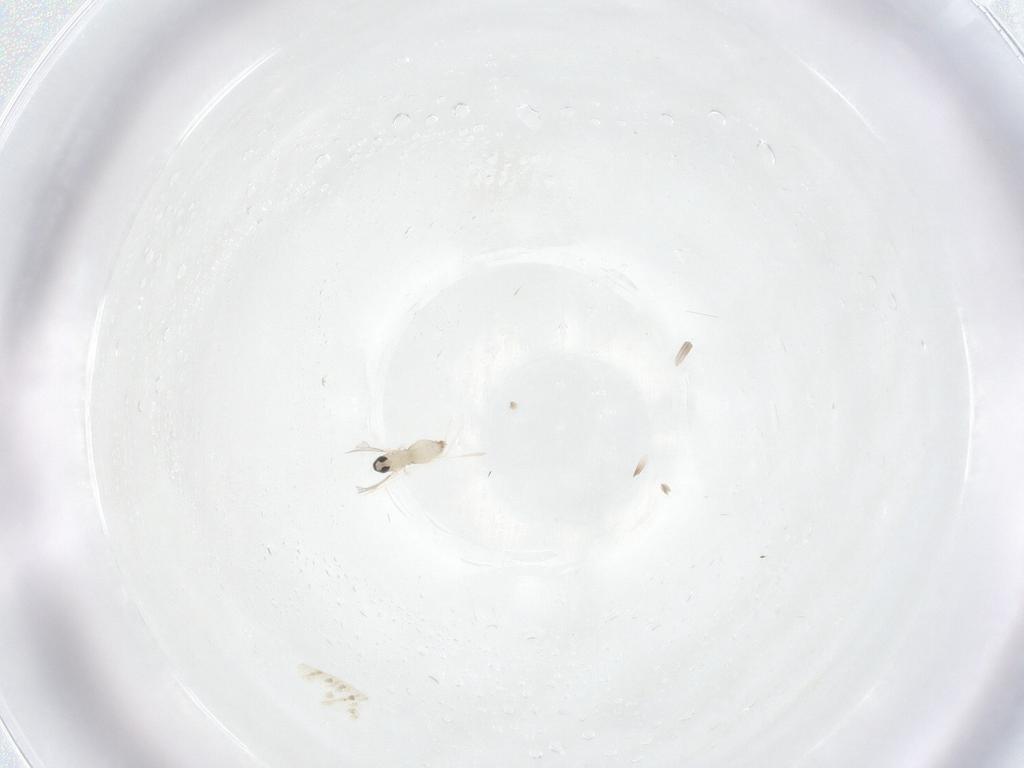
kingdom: Animalia
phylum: Arthropoda
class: Insecta
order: Diptera
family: Cecidomyiidae
